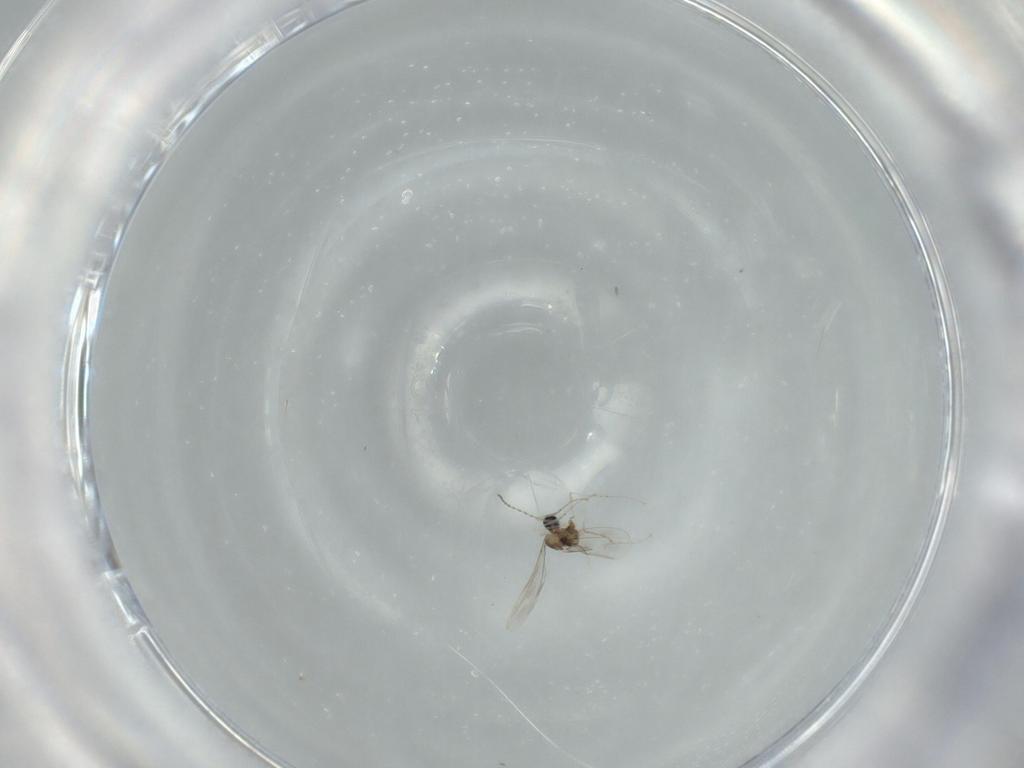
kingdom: Animalia
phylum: Arthropoda
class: Insecta
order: Diptera
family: Cecidomyiidae
